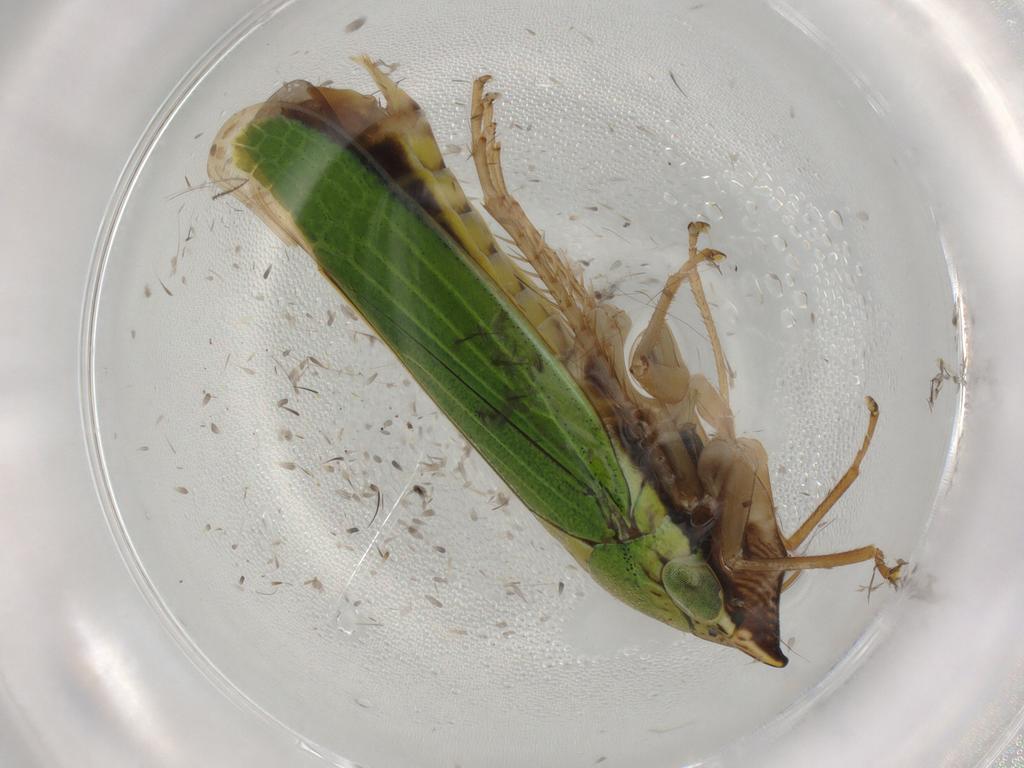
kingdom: Animalia
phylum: Arthropoda
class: Insecta
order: Hemiptera
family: Cicadellidae
